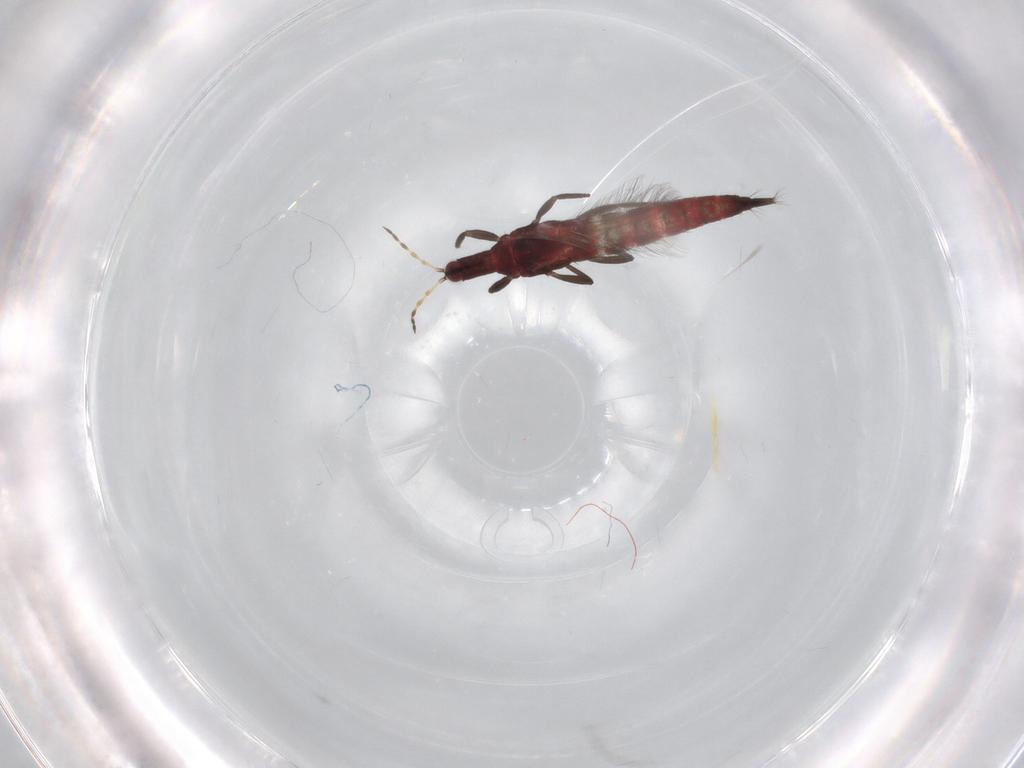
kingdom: Animalia
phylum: Arthropoda
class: Insecta
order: Thysanoptera
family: Phlaeothripidae
